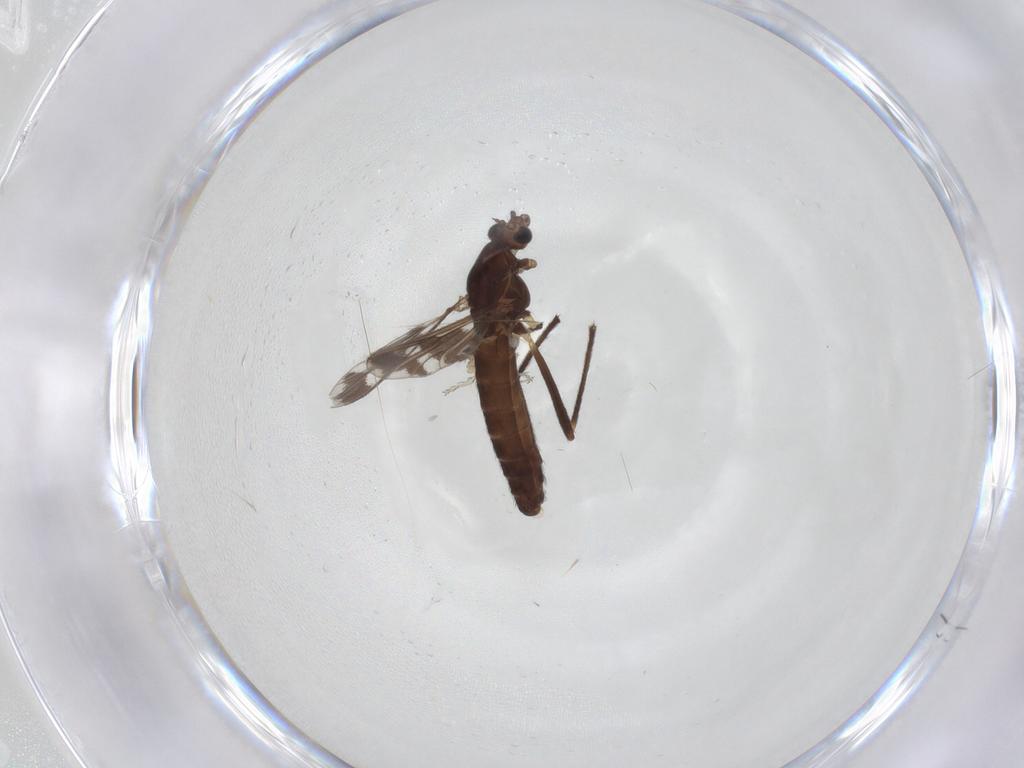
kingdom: Animalia
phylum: Arthropoda
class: Insecta
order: Diptera
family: Chironomidae
